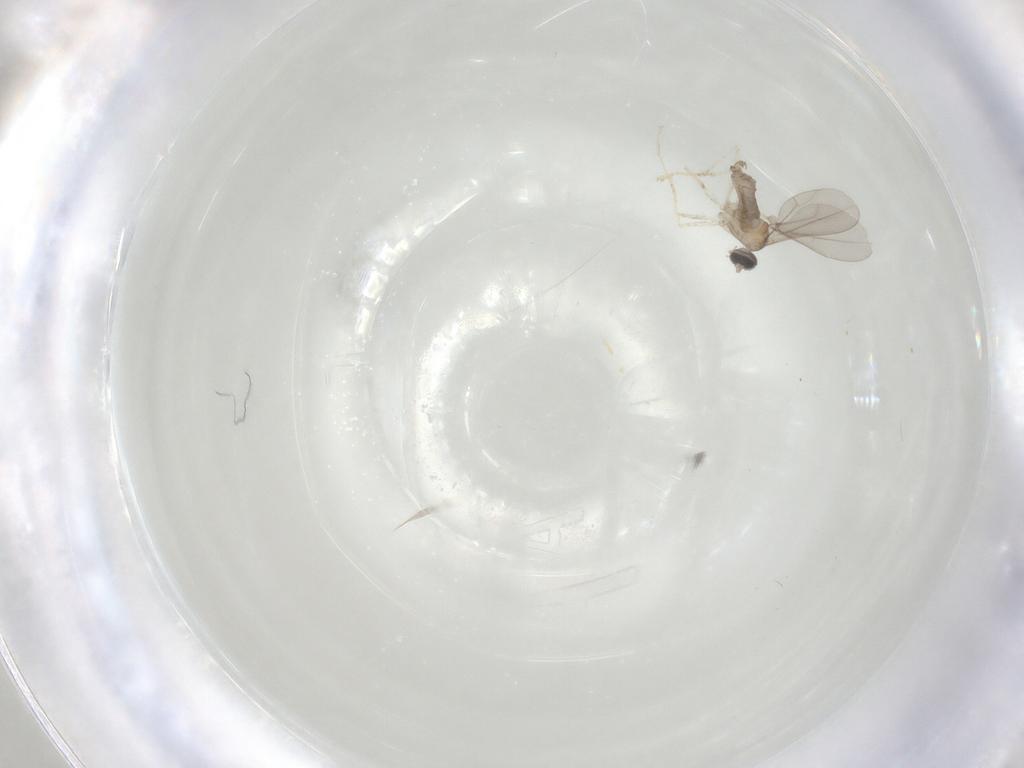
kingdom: Animalia
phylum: Arthropoda
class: Insecta
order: Diptera
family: Cecidomyiidae
